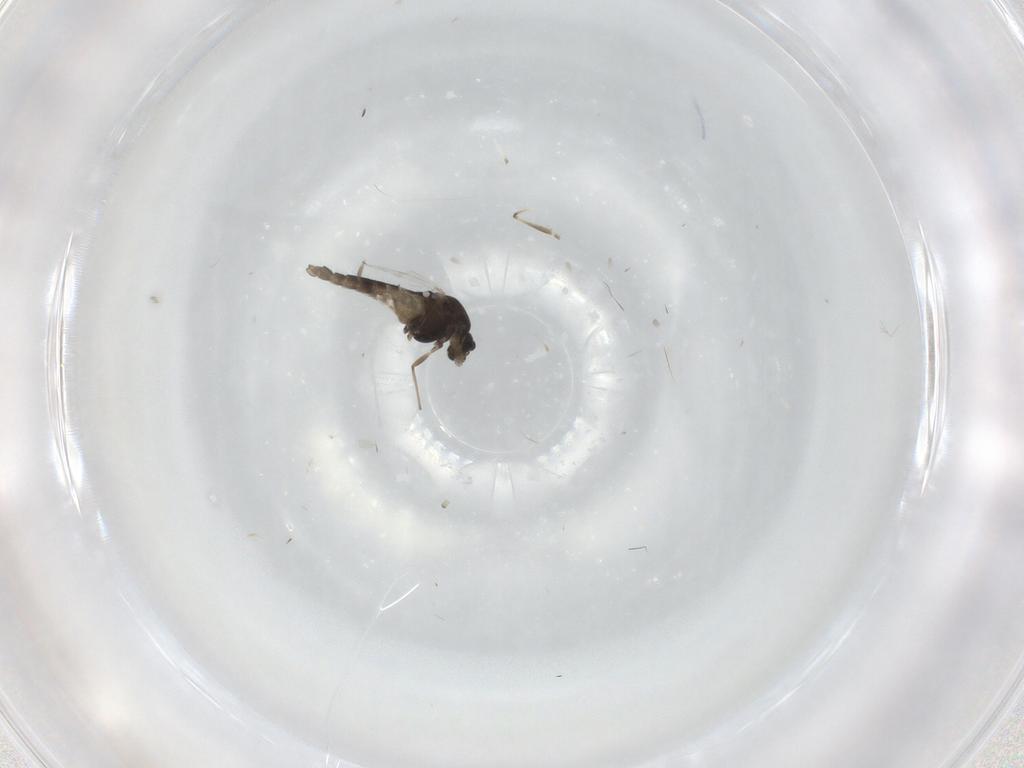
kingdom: Animalia
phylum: Arthropoda
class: Insecta
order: Diptera
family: Chironomidae
